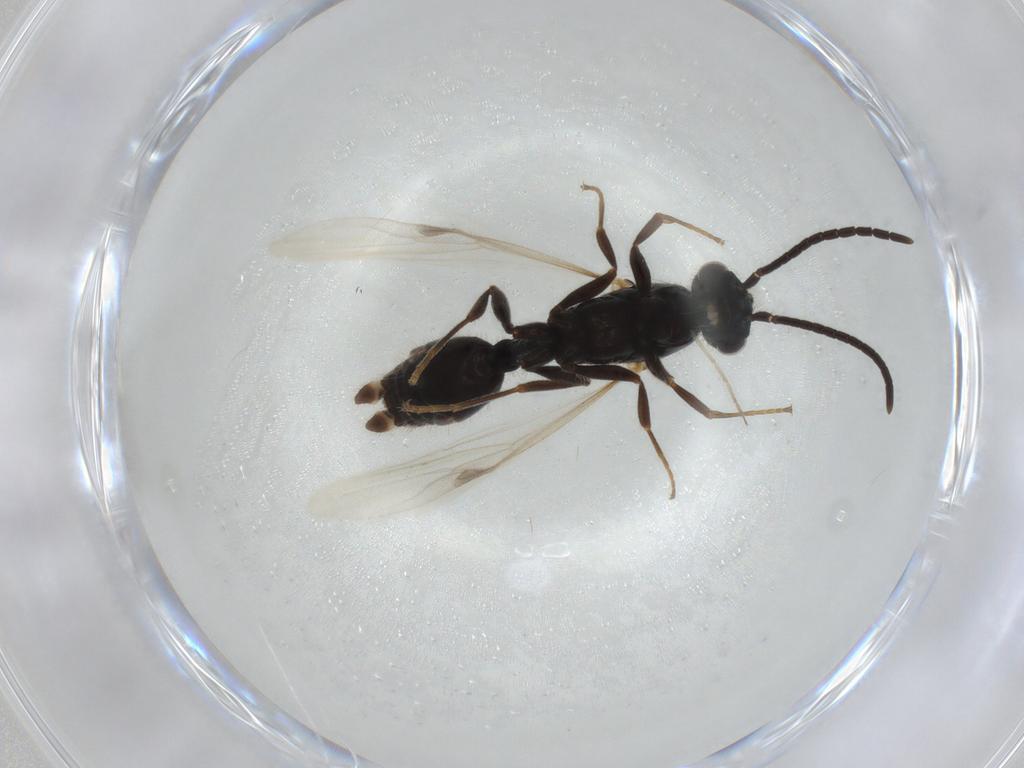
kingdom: Animalia
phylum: Arthropoda
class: Insecta
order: Hymenoptera
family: Formicidae
